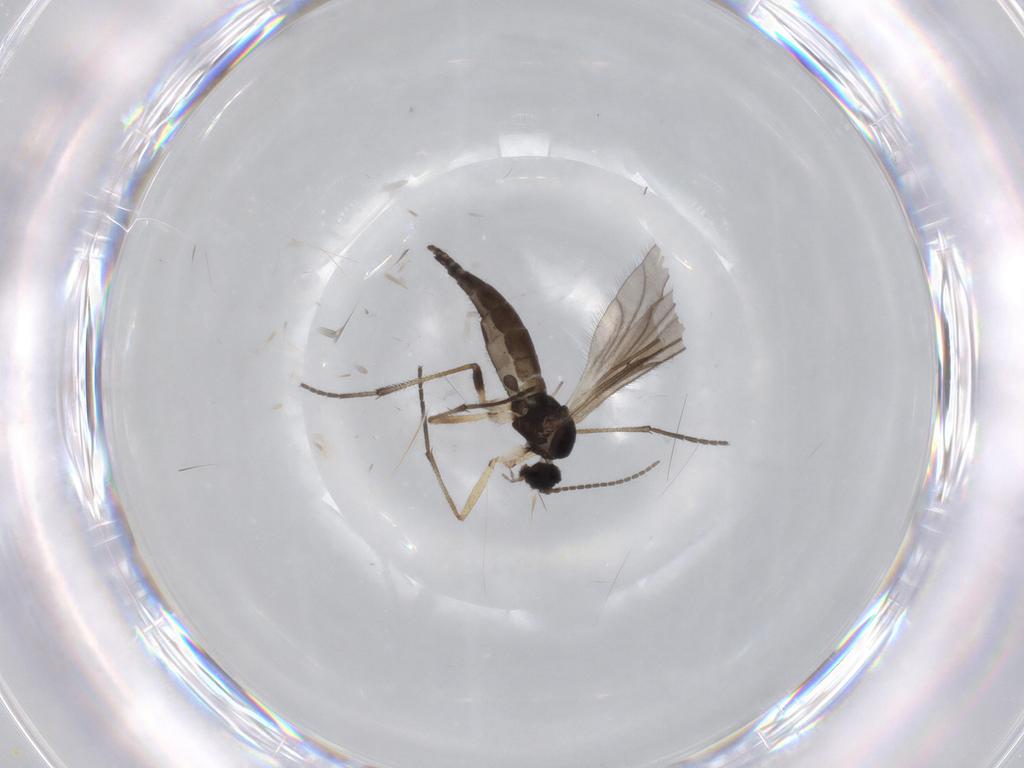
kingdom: Animalia
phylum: Arthropoda
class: Insecta
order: Diptera
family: Sciaridae
